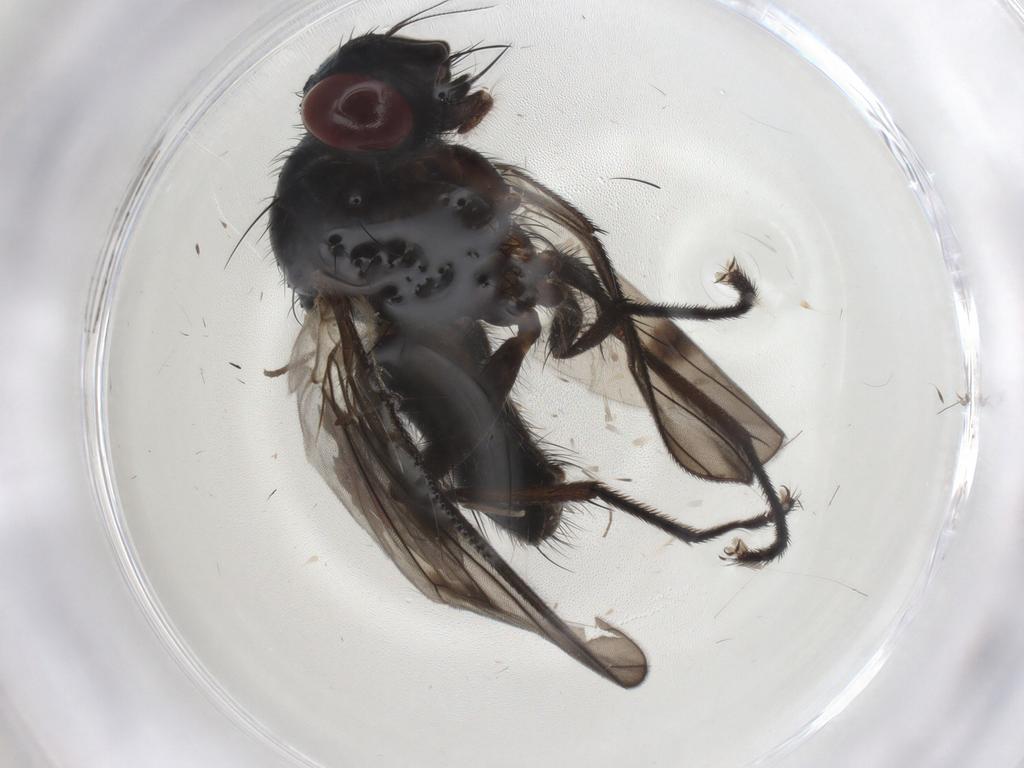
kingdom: Animalia
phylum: Arthropoda
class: Insecta
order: Diptera
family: Muscidae
